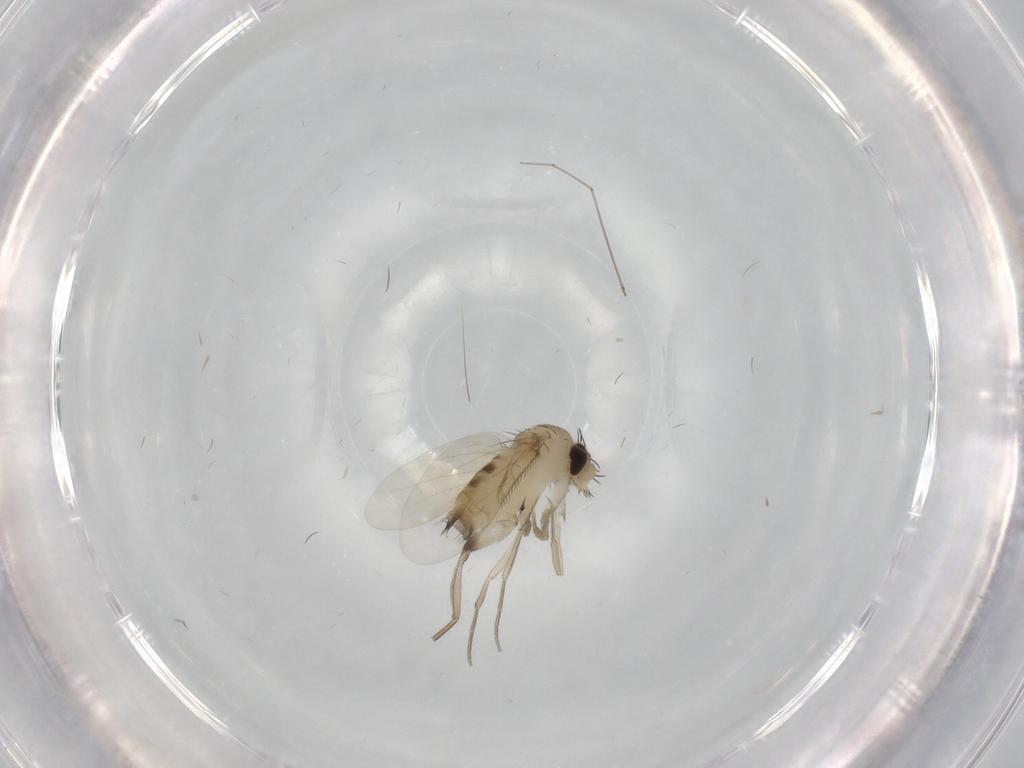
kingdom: Animalia
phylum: Arthropoda
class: Insecta
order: Diptera
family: Phoridae
